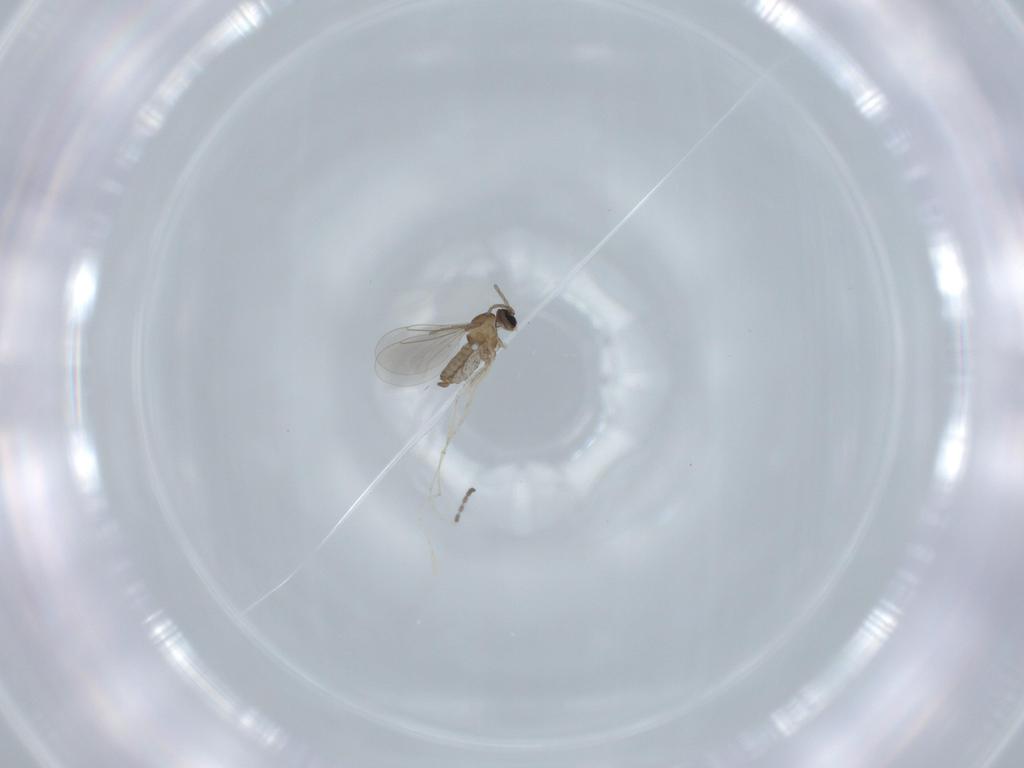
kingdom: Animalia
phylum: Arthropoda
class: Insecta
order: Diptera
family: Cecidomyiidae
